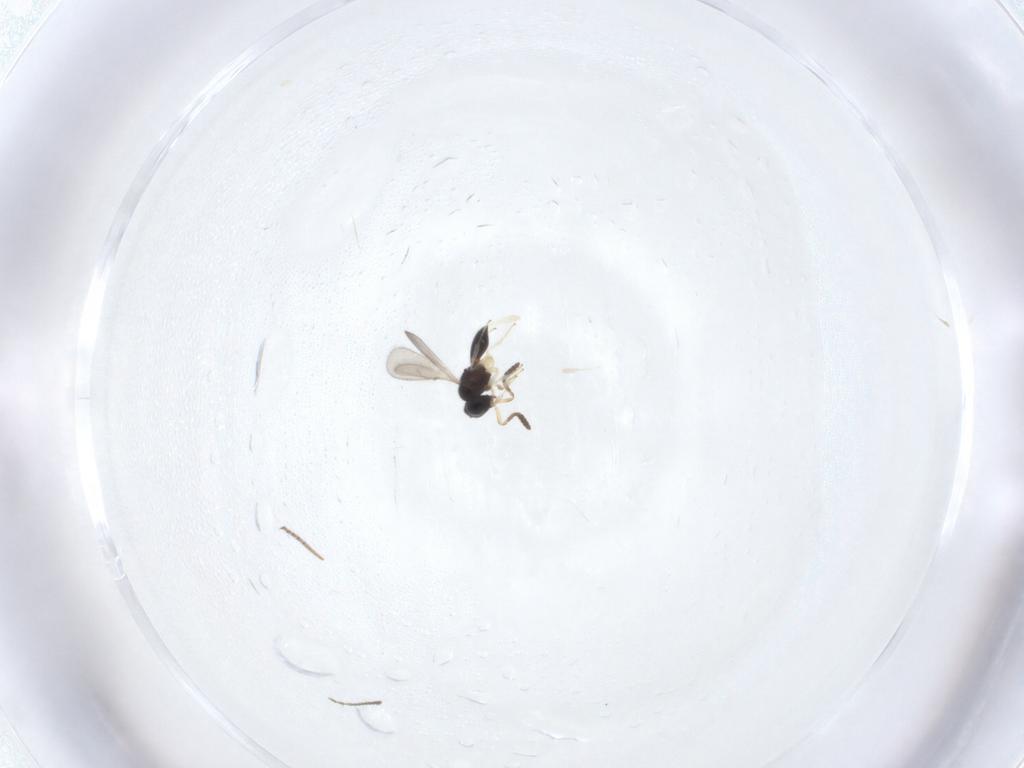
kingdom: Animalia
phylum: Arthropoda
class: Insecta
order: Hymenoptera
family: Scelionidae
